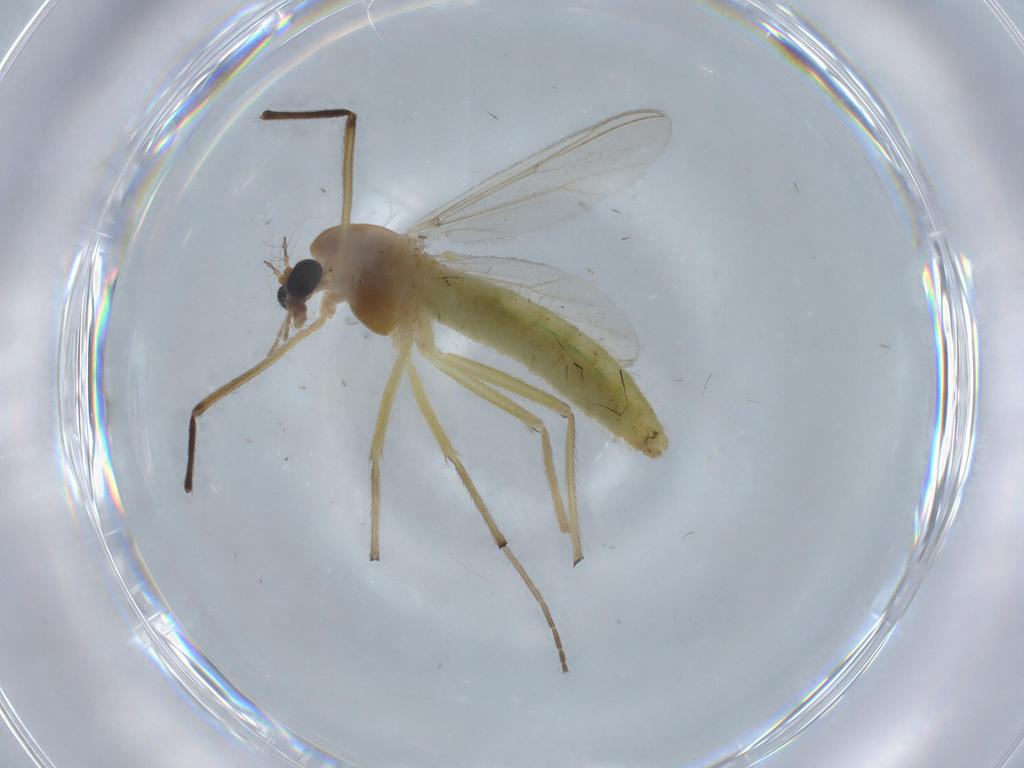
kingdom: Animalia
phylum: Arthropoda
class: Insecta
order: Diptera
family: Chironomidae
